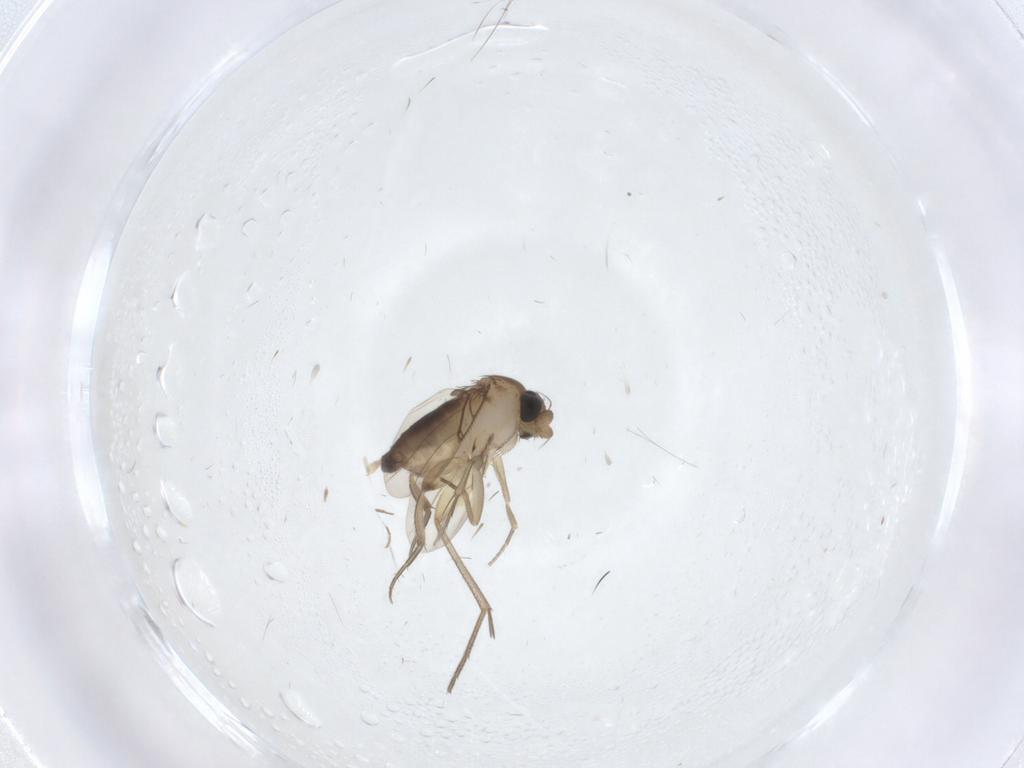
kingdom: Animalia
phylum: Arthropoda
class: Insecta
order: Diptera
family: Phoridae
